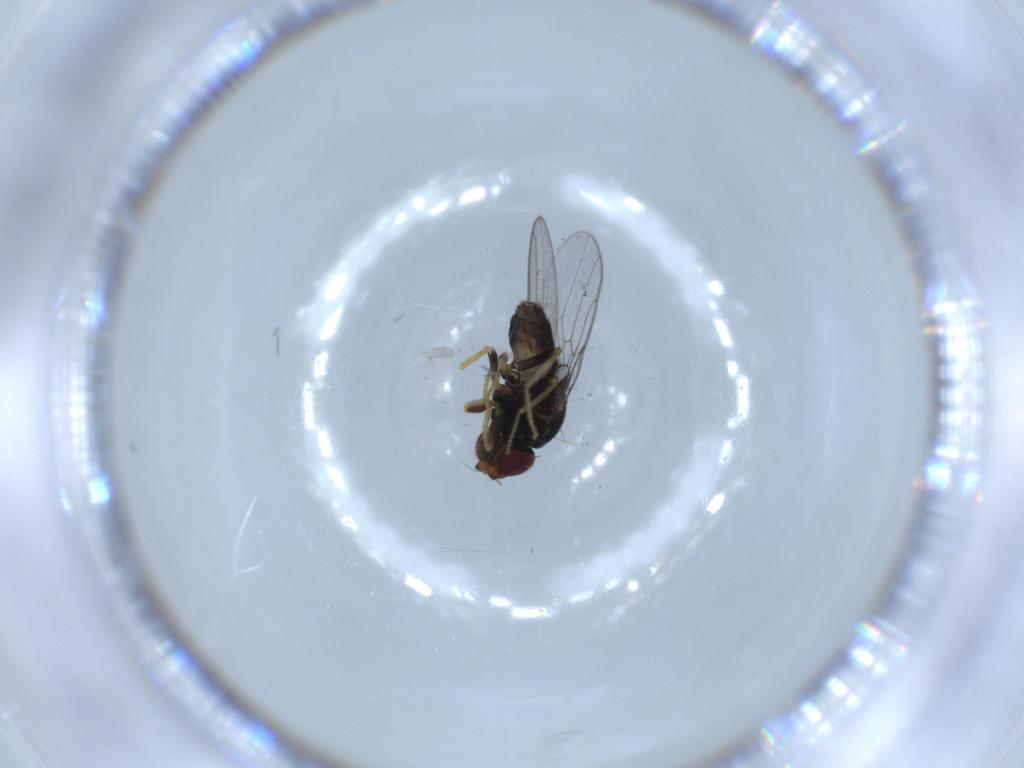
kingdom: Animalia
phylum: Arthropoda
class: Insecta
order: Diptera
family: Chloropidae
